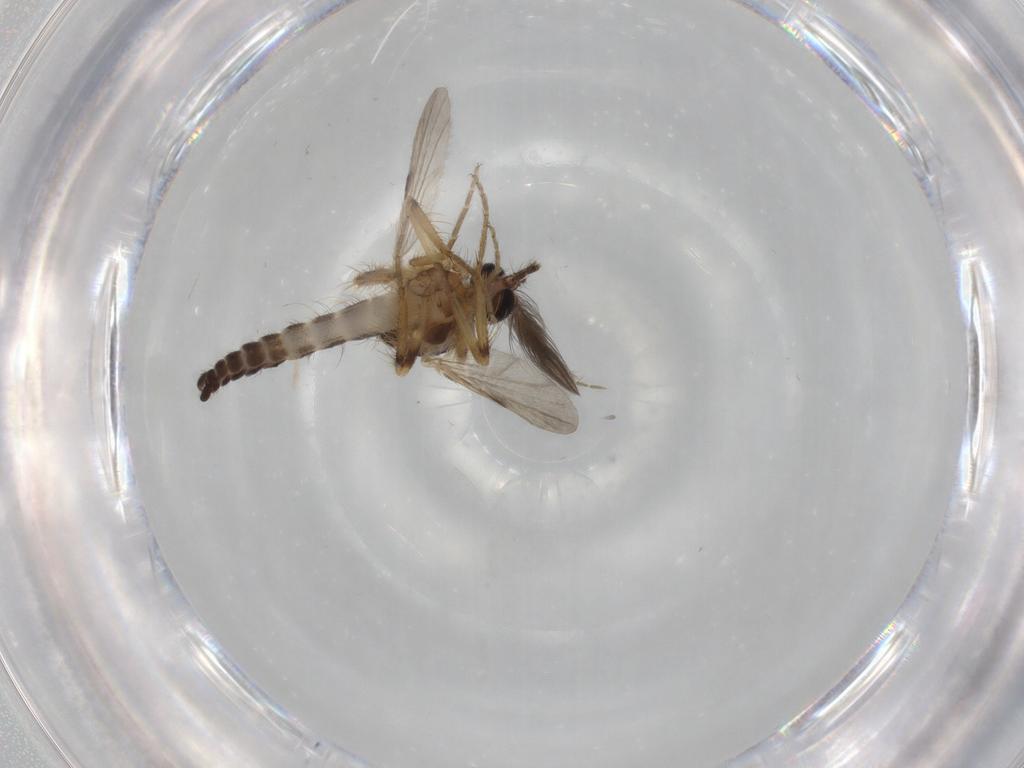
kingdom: Animalia
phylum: Arthropoda
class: Insecta
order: Diptera
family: Ceratopogonidae
